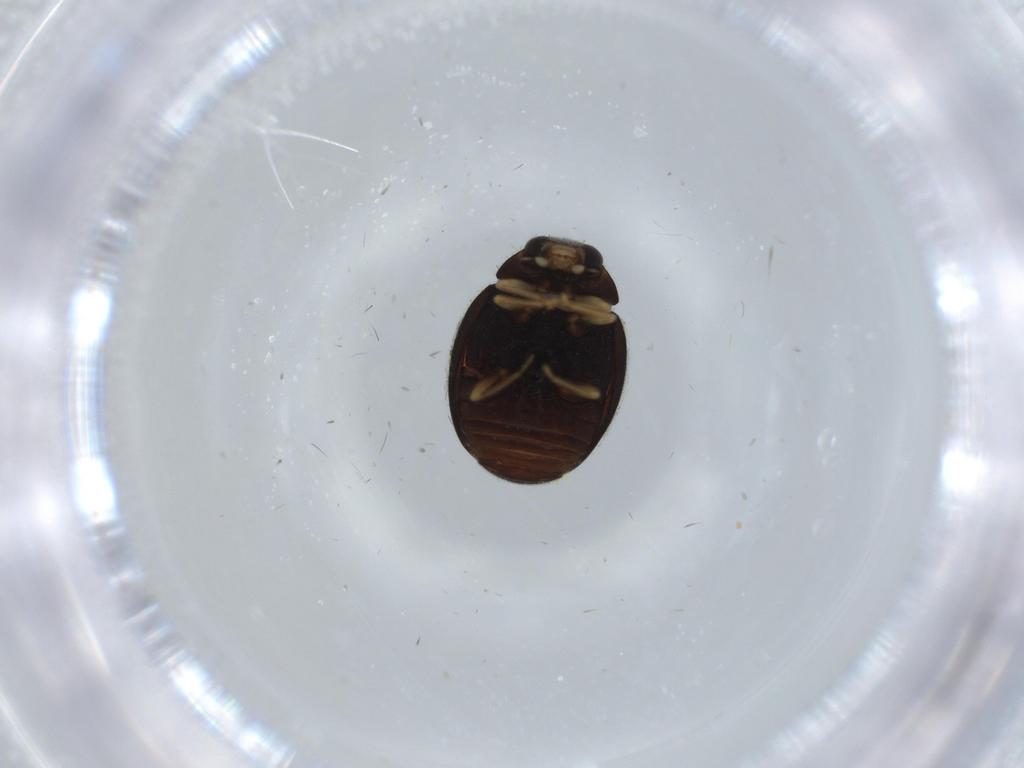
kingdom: Animalia
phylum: Arthropoda
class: Insecta
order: Coleoptera
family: Coccinellidae
